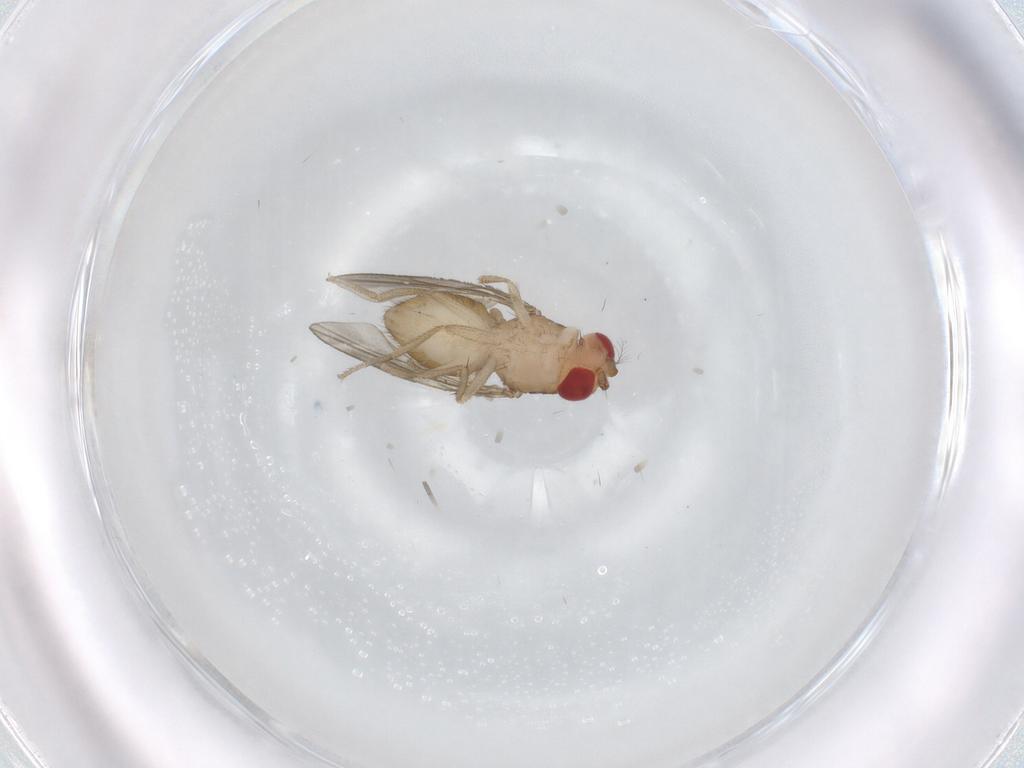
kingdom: Animalia
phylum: Arthropoda
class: Insecta
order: Diptera
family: Drosophilidae
